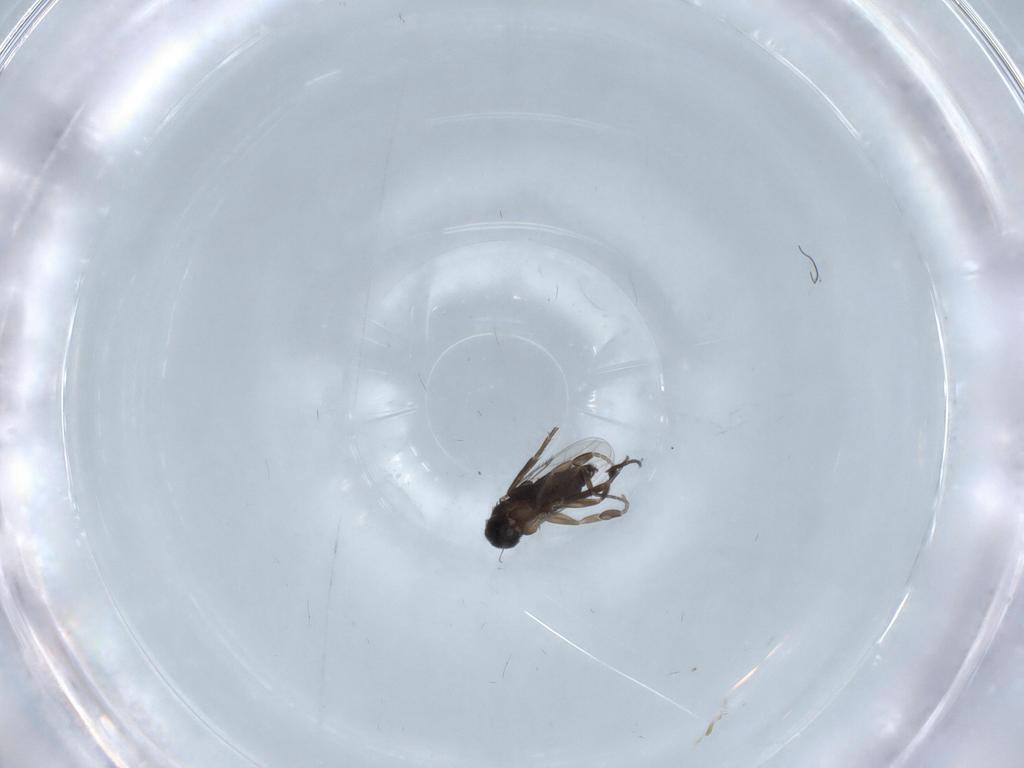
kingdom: Animalia
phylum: Arthropoda
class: Insecta
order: Diptera
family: Phoridae
